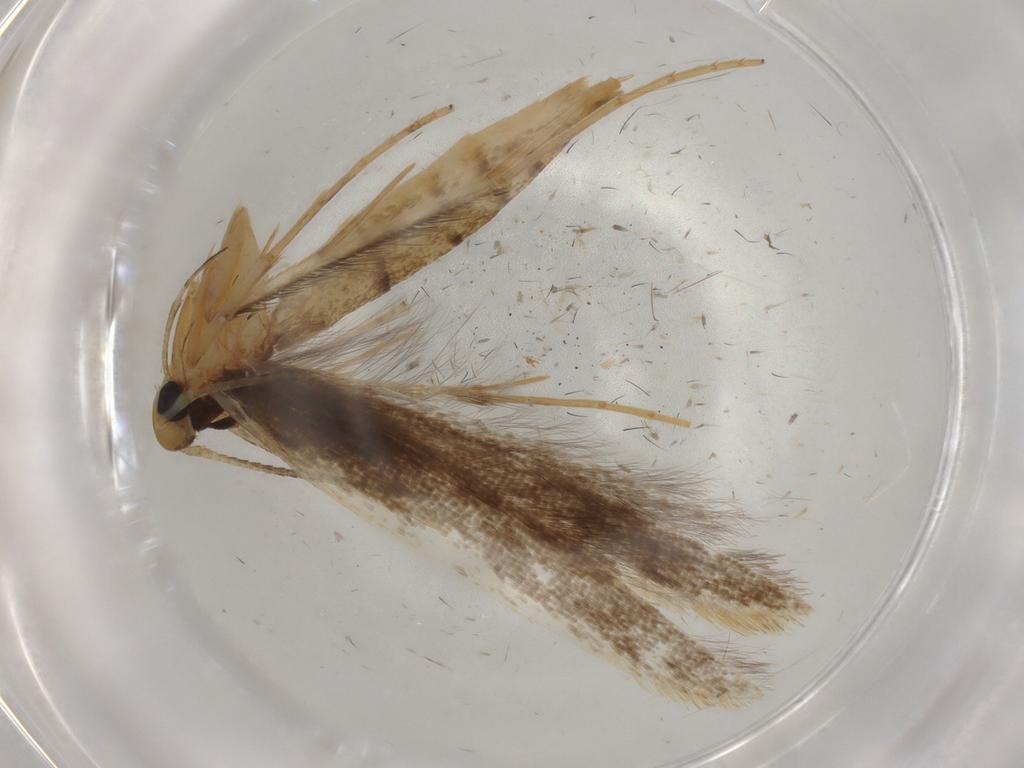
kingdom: Animalia
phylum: Arthropoda
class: Insecta
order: Lepidoptera
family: Pterolonchidae
